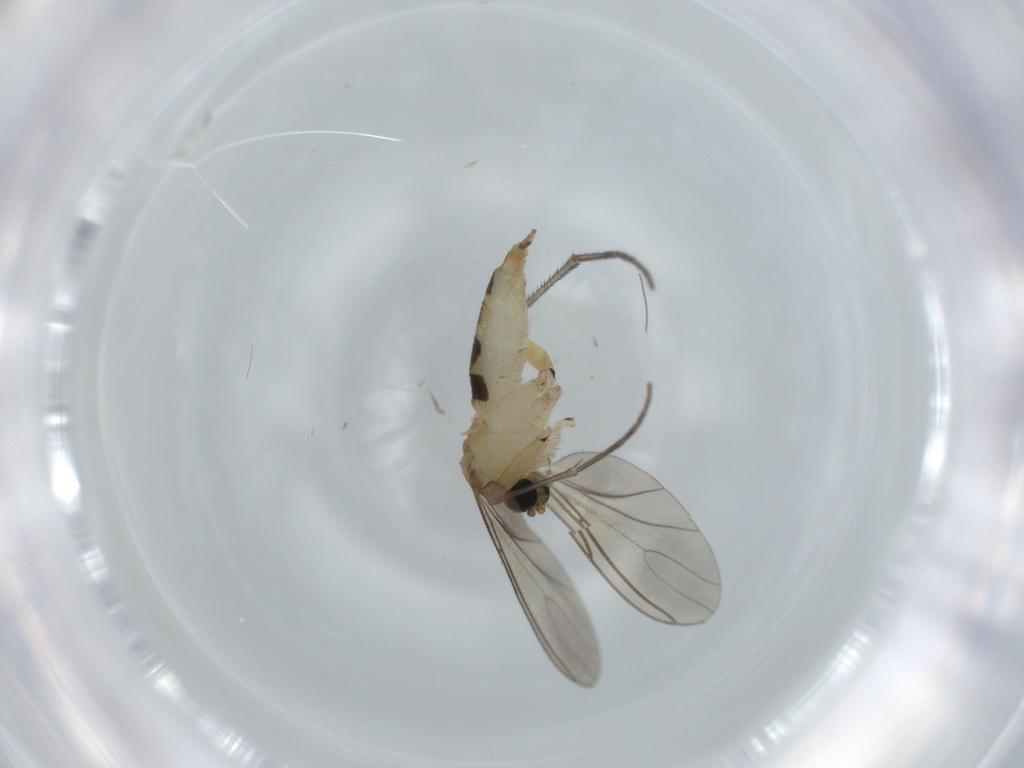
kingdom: Animalia
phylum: Arthropoda
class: Insecta
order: Diptera
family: Sciaridae
